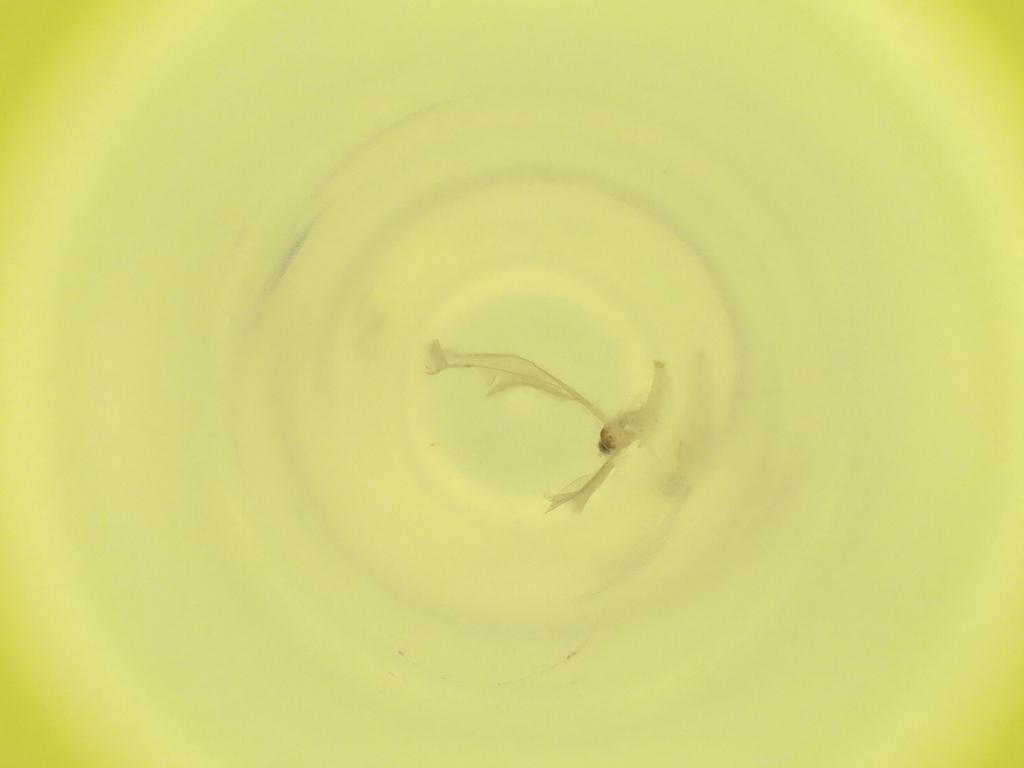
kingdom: Animalia
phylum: Arthropoda
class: Insecta
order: Diptera
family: Cecidomyiidae
